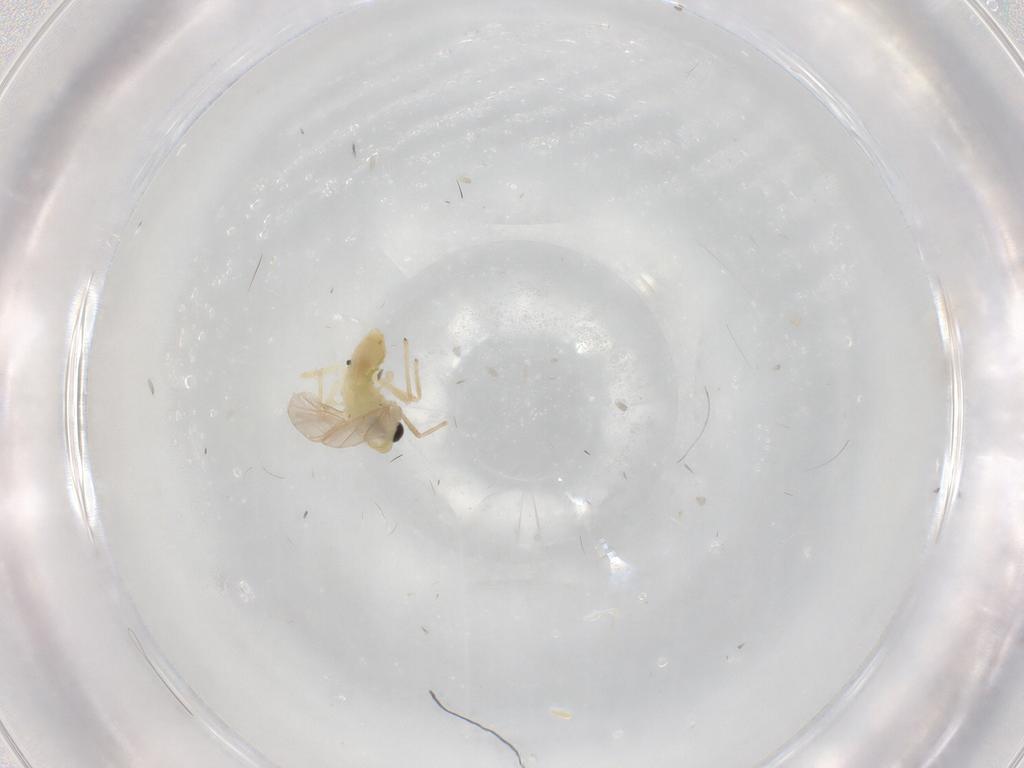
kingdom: Animalia
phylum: Arthropoda
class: Insecta
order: Diptera
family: Chironomidae
